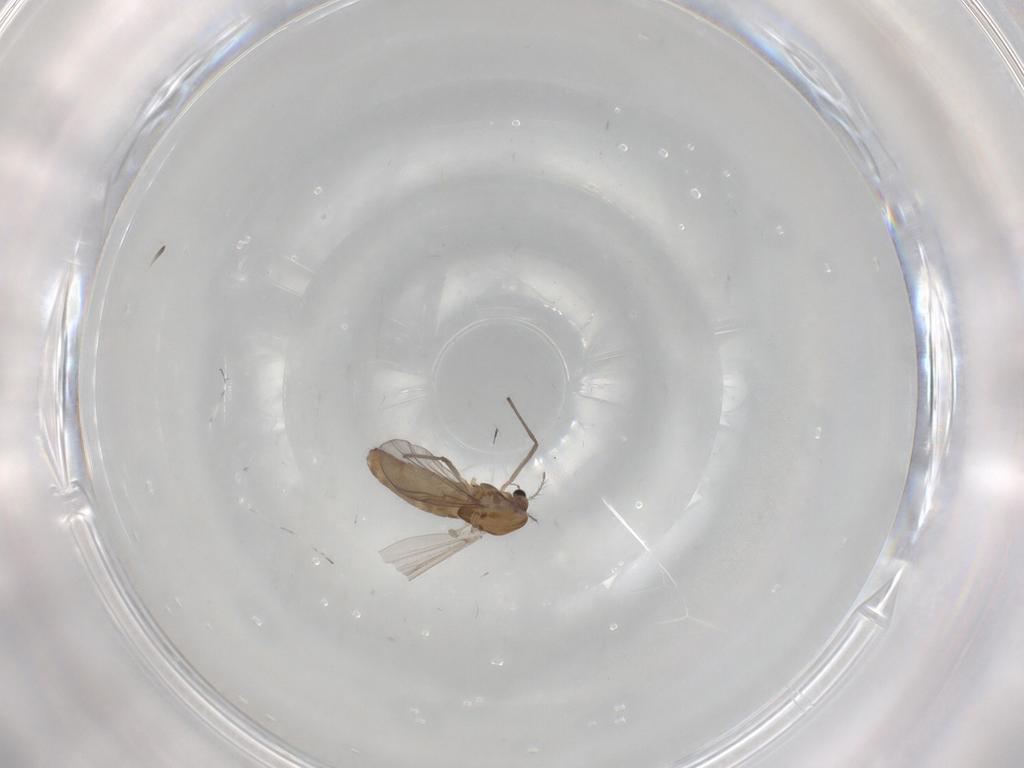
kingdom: Animalia
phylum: Arthropoda
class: Insecta
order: Diptera
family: Chironomidae
